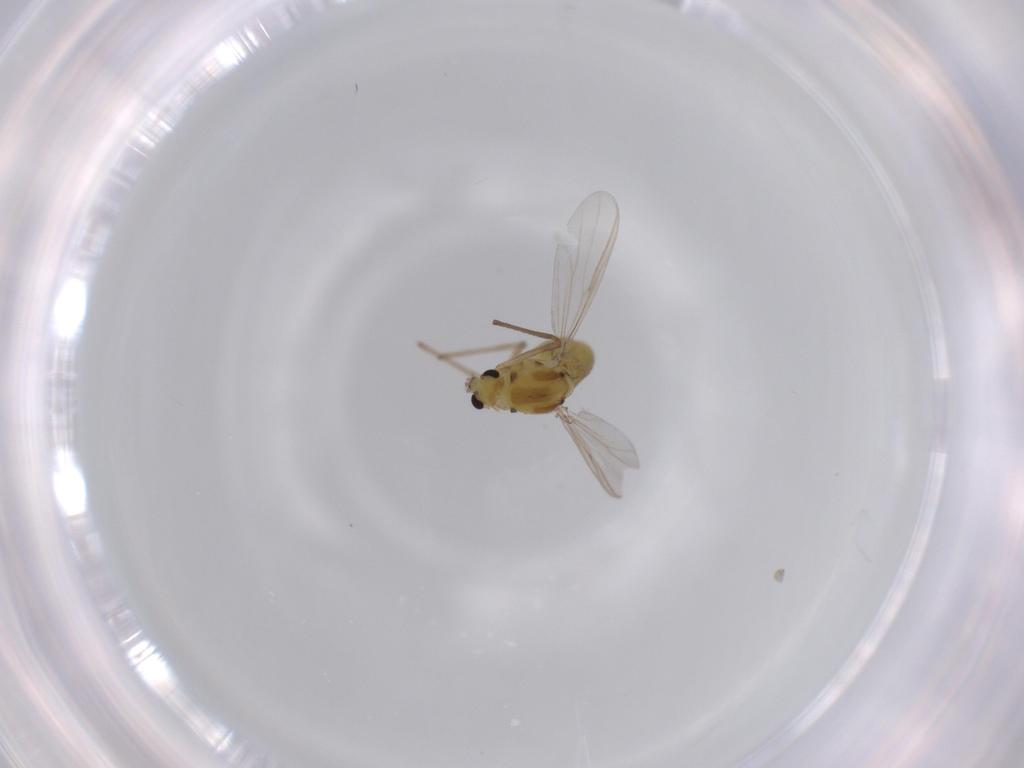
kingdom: Animalia
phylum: Arthropoda
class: Insecta
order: Diptera
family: Chironomidae
